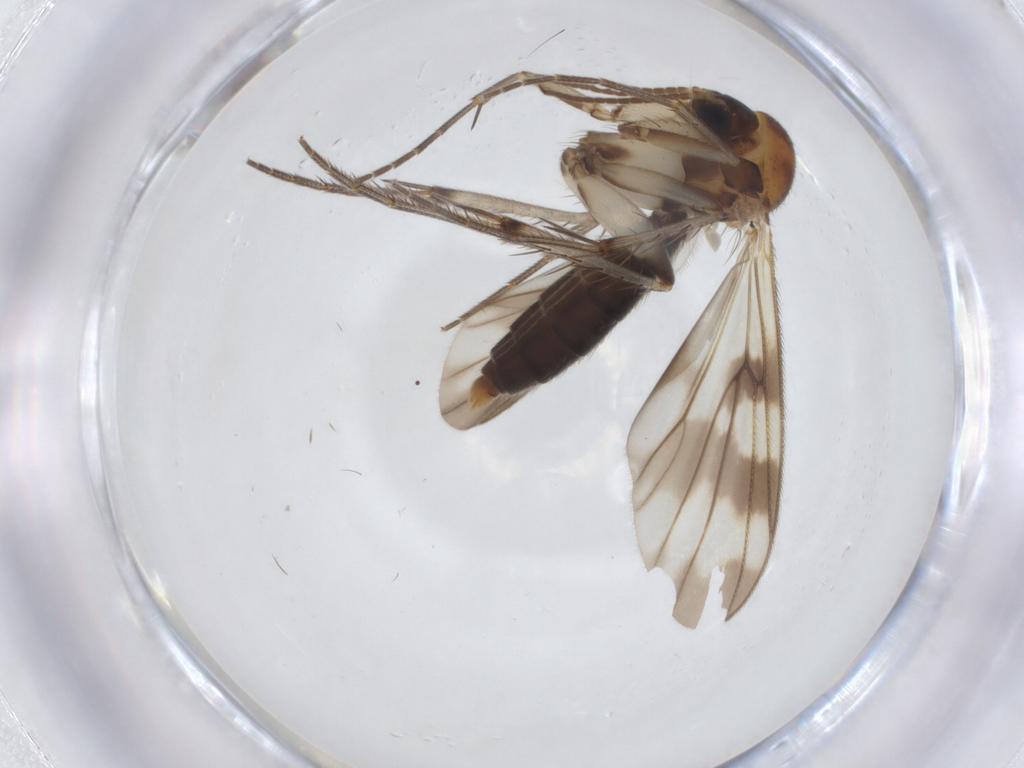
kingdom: Animalia
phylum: Arthropoda
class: Insecta
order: Diptera
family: Mycetophilidae
